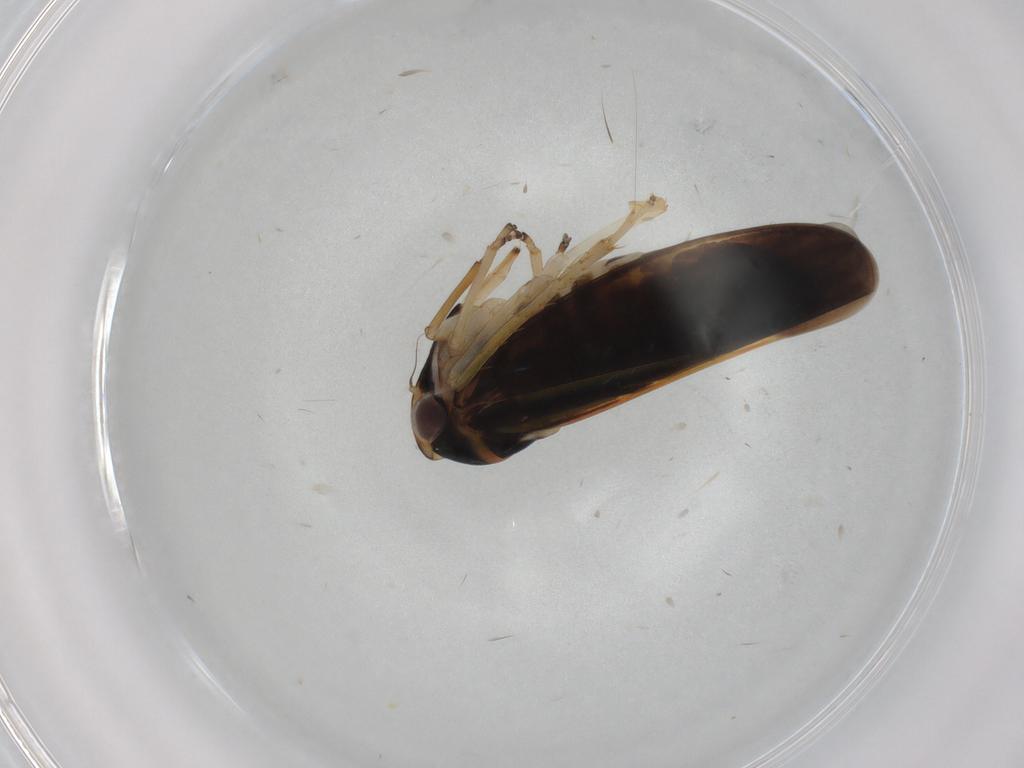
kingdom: Animalia
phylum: Arthropoda
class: Insecta
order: Hemiptera
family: Cicadellidae
